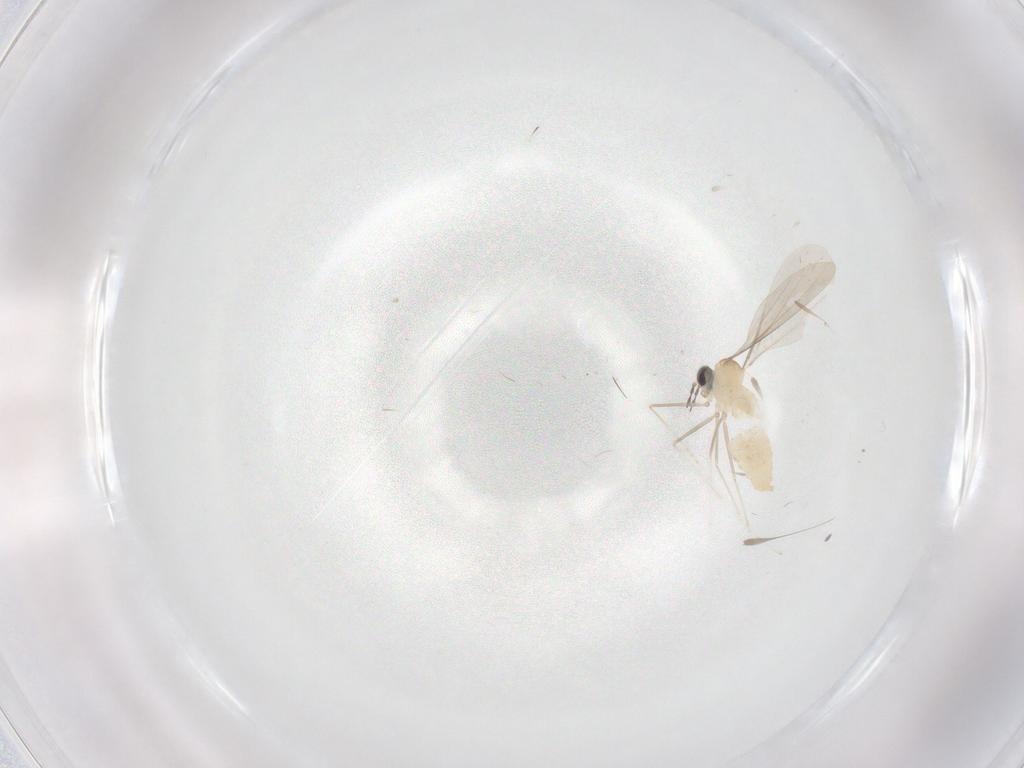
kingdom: Animalia
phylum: Arthropoda
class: Insecta
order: Diptera
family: Cecidomyiidae
